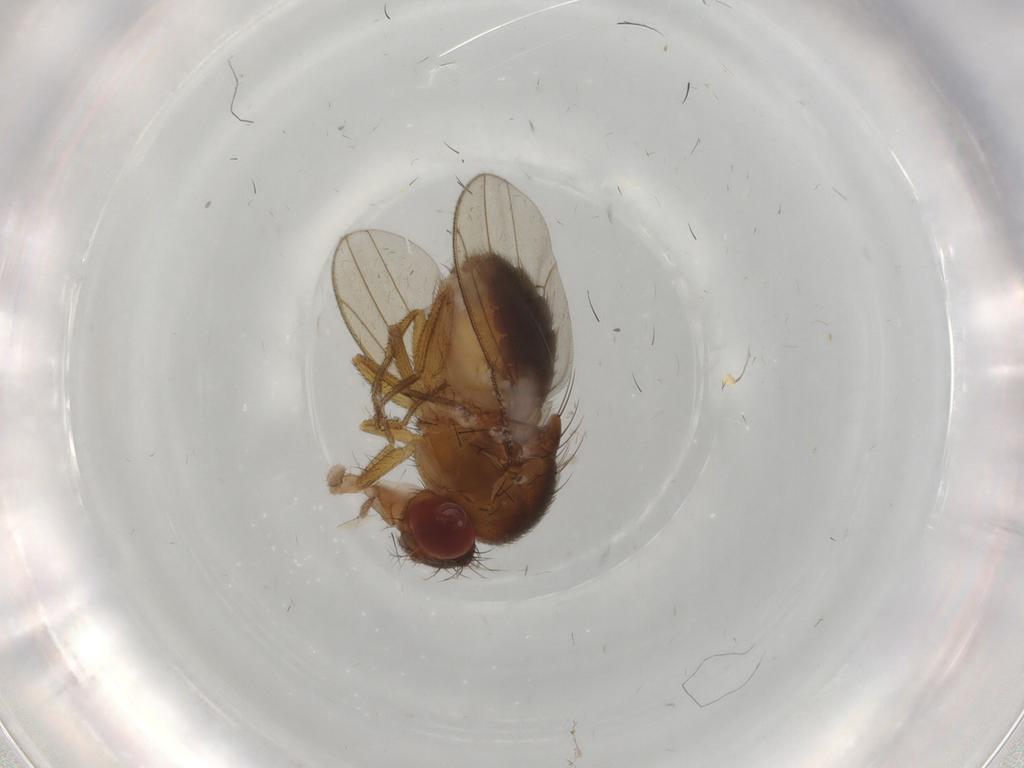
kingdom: Animalia
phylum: Arthropoda
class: Insecta
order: Diptera
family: Drosophilidae
